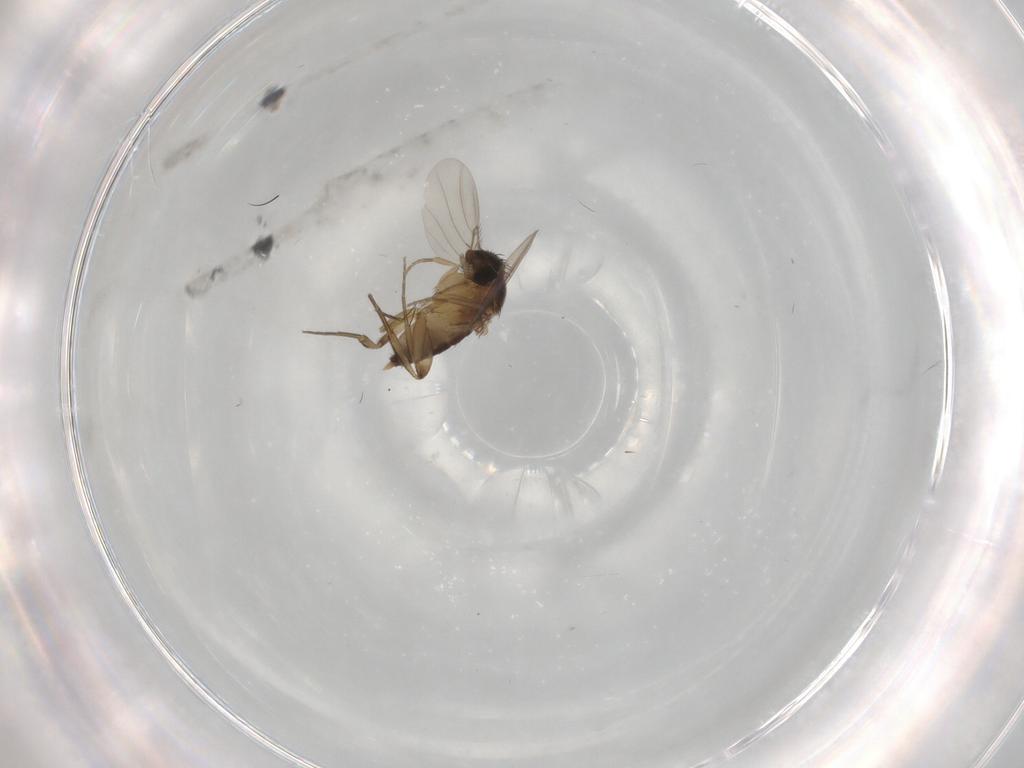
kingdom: Animalia
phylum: Arthropoda
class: Insecta
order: Diptera
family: Phoridae
